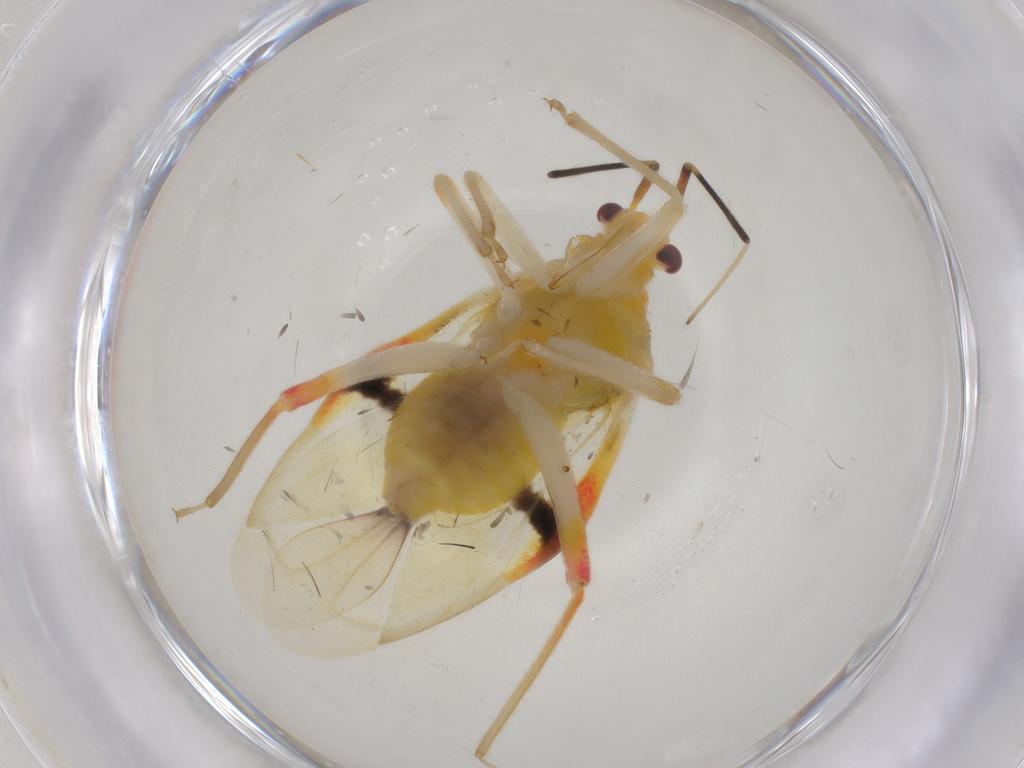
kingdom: Animalia
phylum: Arthropoda
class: Insecta
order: Hemiptera
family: Miridae
